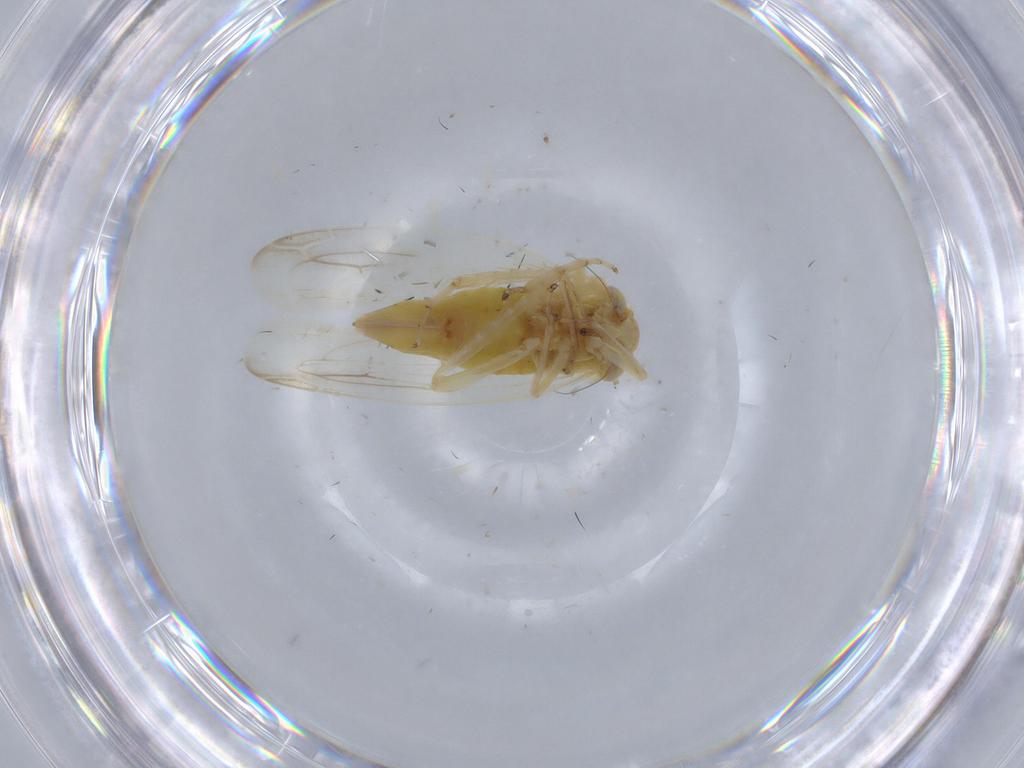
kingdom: Animalia
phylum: Arthropoda
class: Insecta
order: Hemiptera
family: Cicadellidae
